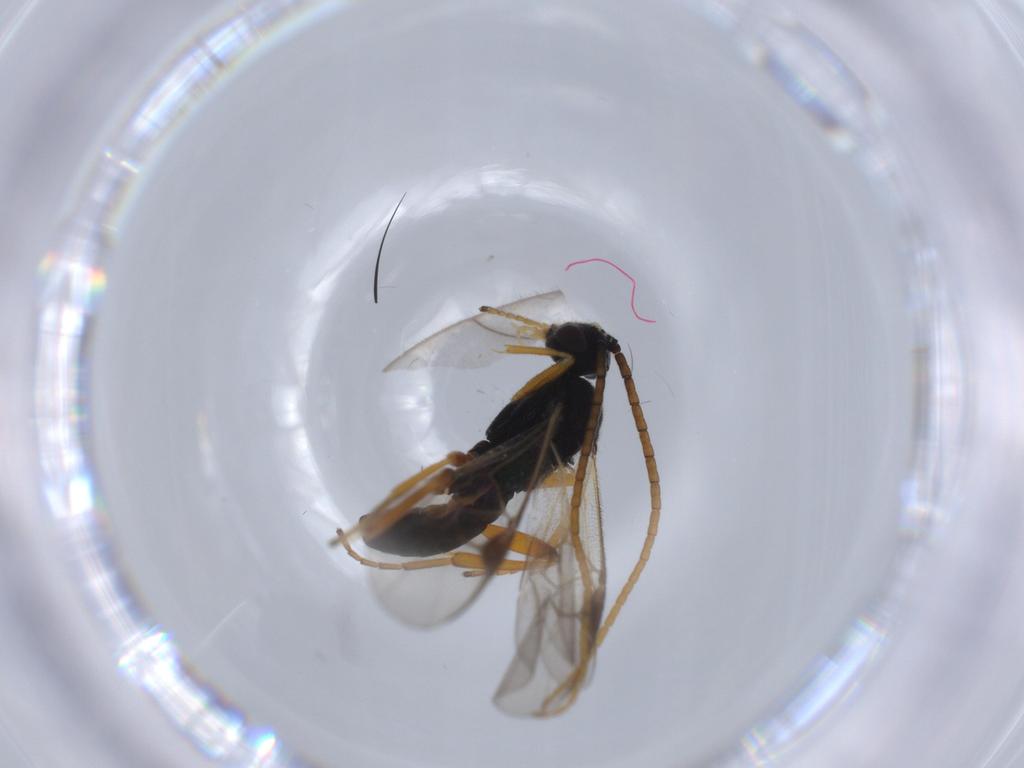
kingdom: Animalia
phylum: Arthropoda
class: Insecta
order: Hymenoptera
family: Braconidae
